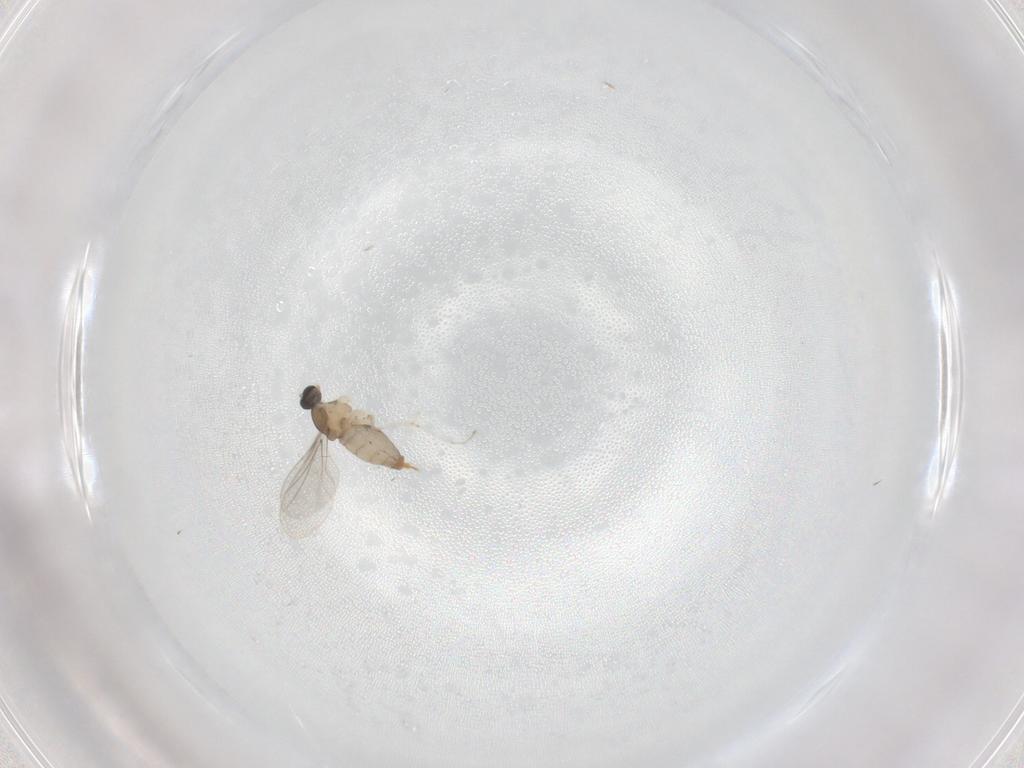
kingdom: Animalia
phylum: Arthropoda
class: Insecta
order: Diptera
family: Cecidomyiidae
